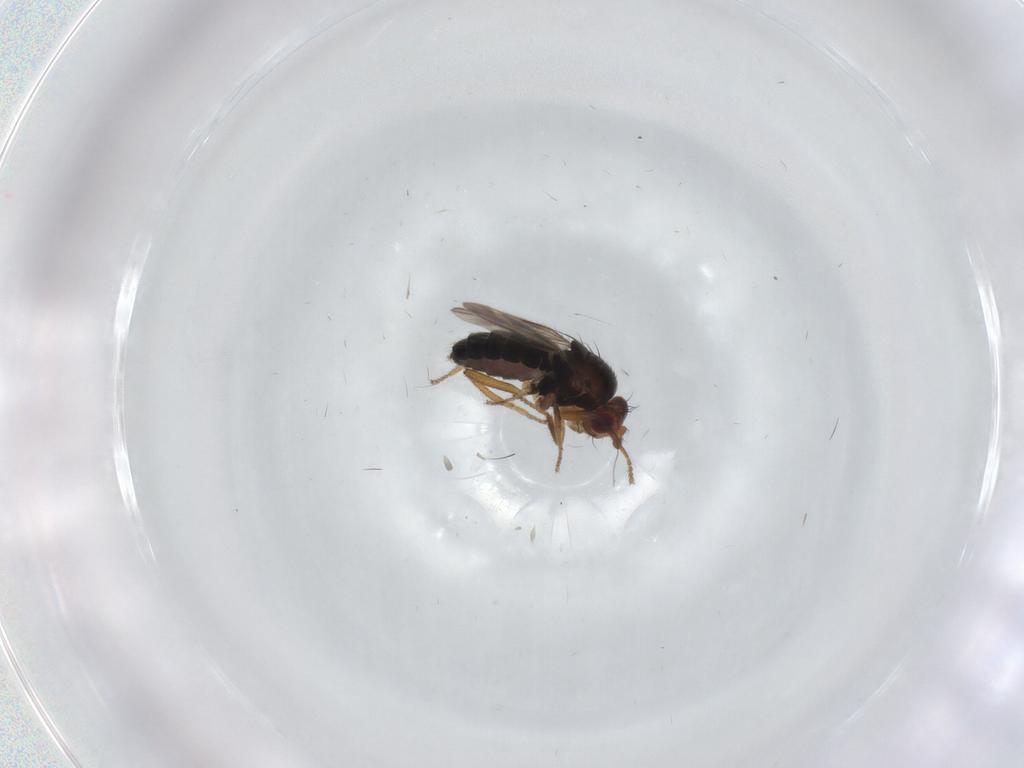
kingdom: Animalia
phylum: Arthropoda
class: Insecta
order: Diptera
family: Sphaeroceridae
